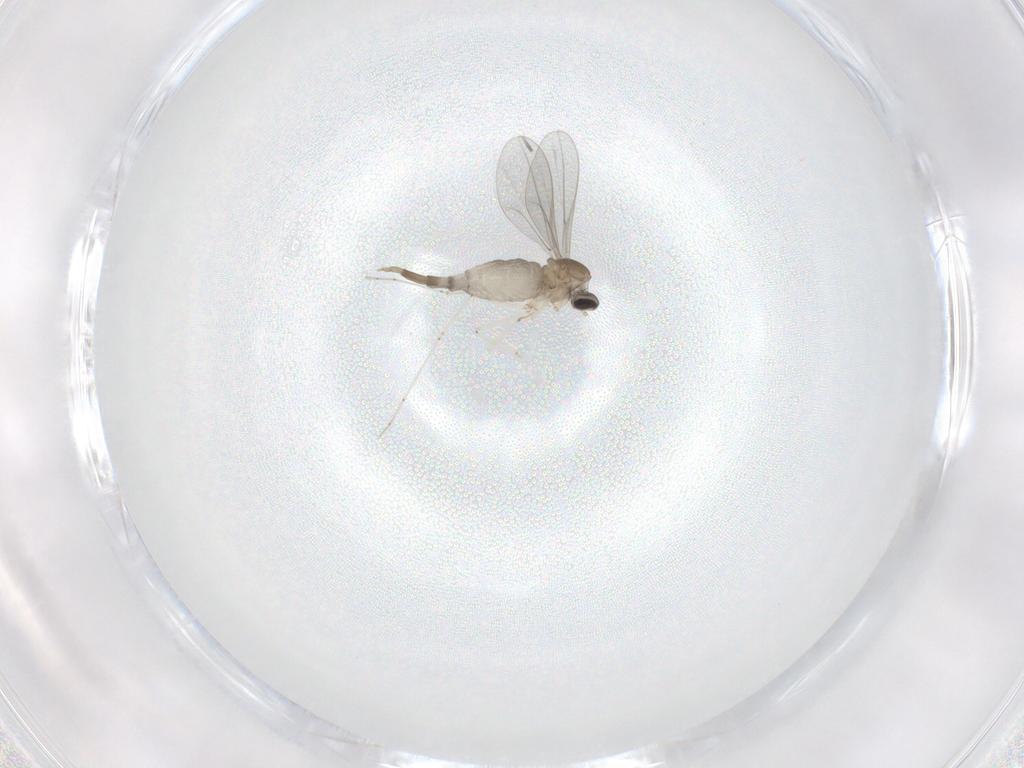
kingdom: Animalia
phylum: Arthropoda
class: Insecta
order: Diptera
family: Cecidomyiidae
